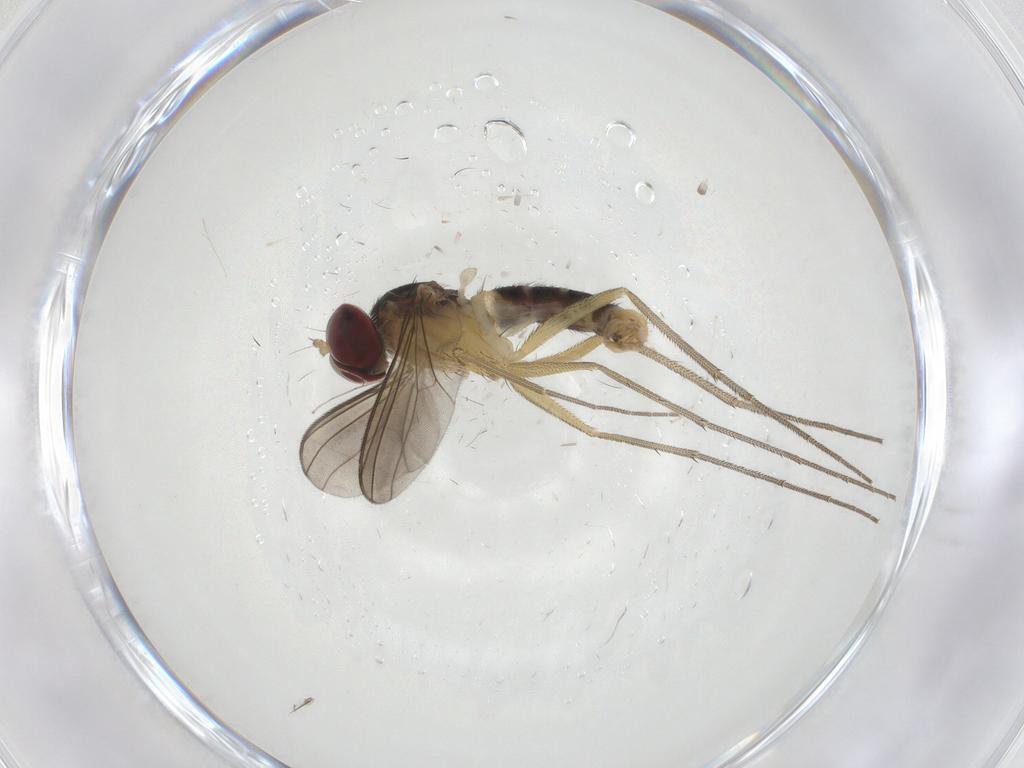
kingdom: Animalia
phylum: Arthropoda
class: Insecta
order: Diptera
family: Dolichopodidae
